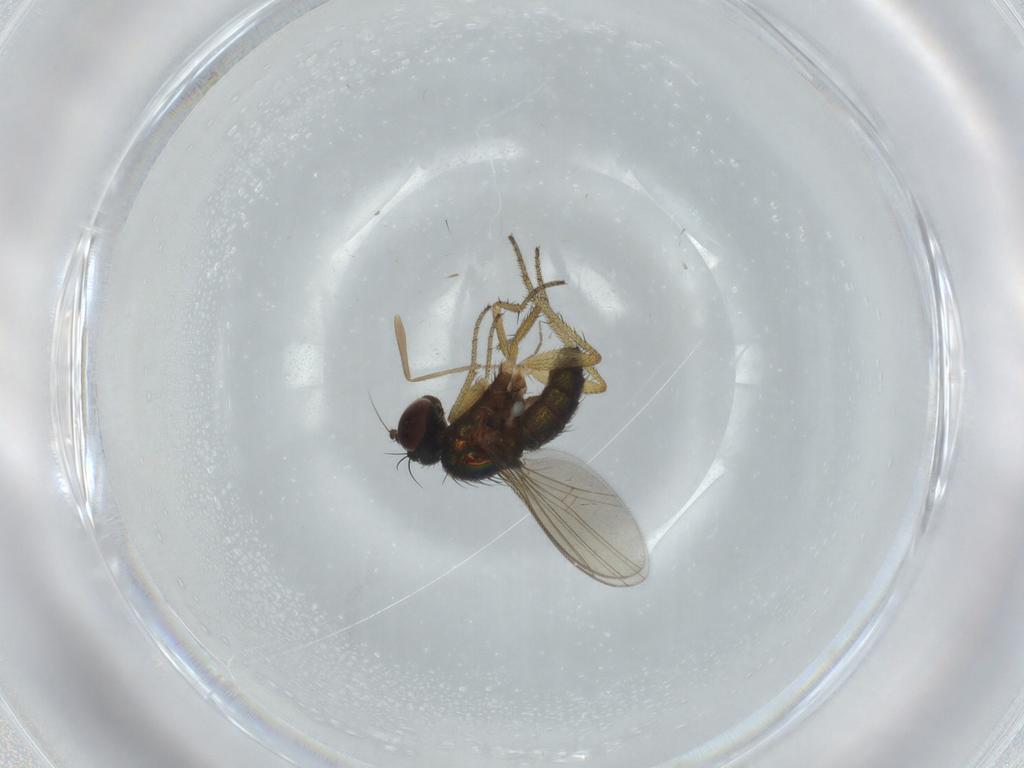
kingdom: Animalia
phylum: Arthropoda
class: Insecta
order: Diptera
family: Dolichopodidae
